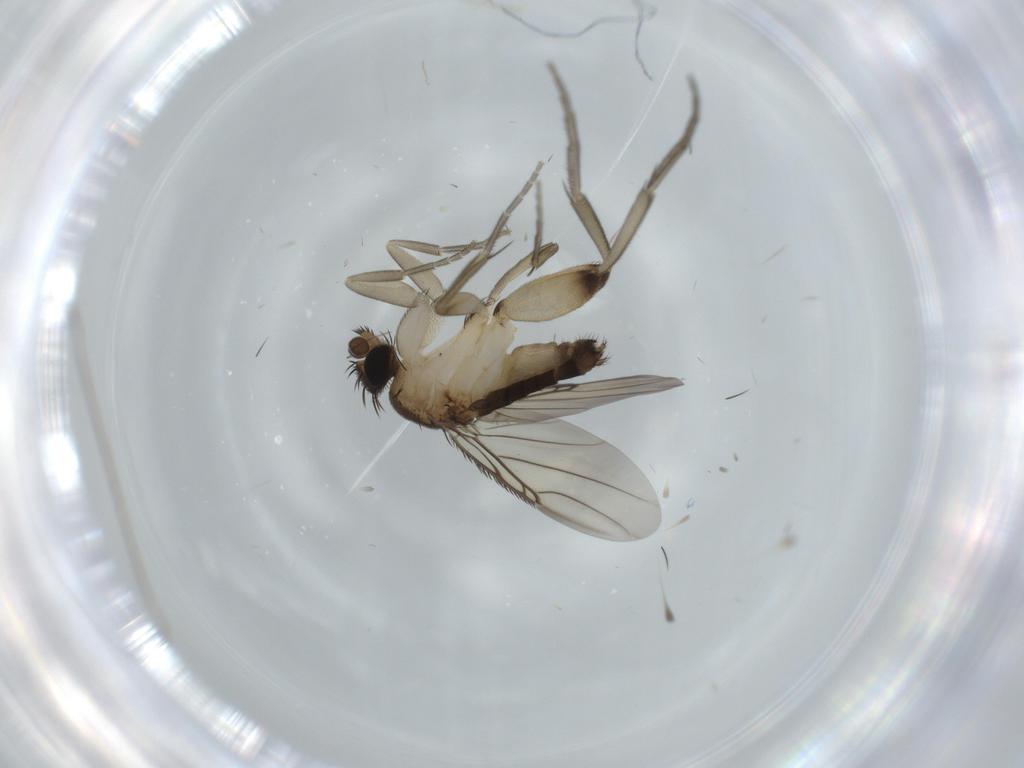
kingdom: Animalia
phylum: Arthropoda
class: Insecta
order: Diptera
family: Phoridae
